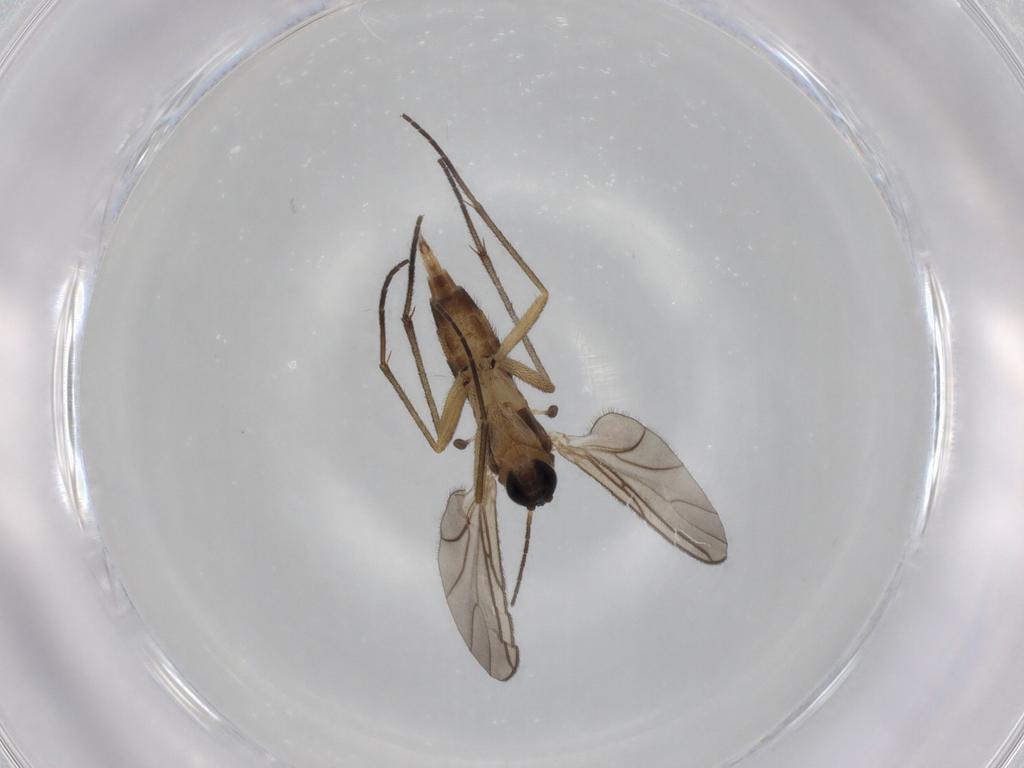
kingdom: Animalia
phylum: Arthropoda
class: Insecta
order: Diptera
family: Sciaridae
